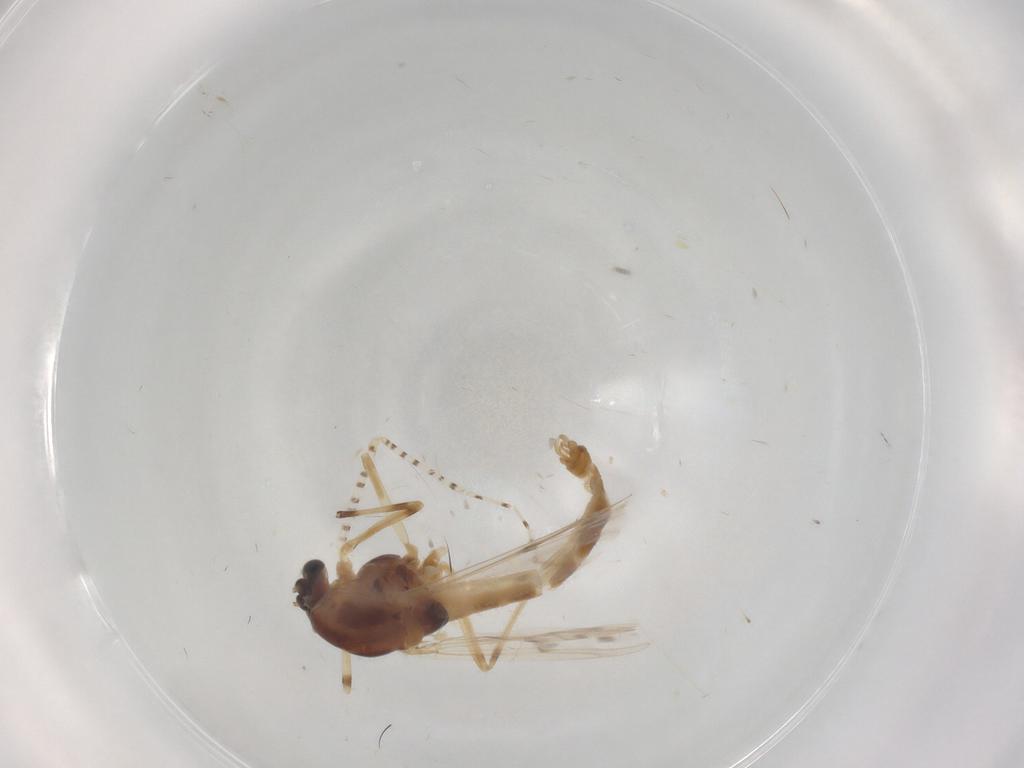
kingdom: Animalia
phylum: Arthropoda
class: Insecta
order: Diptera
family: Chironomidae
